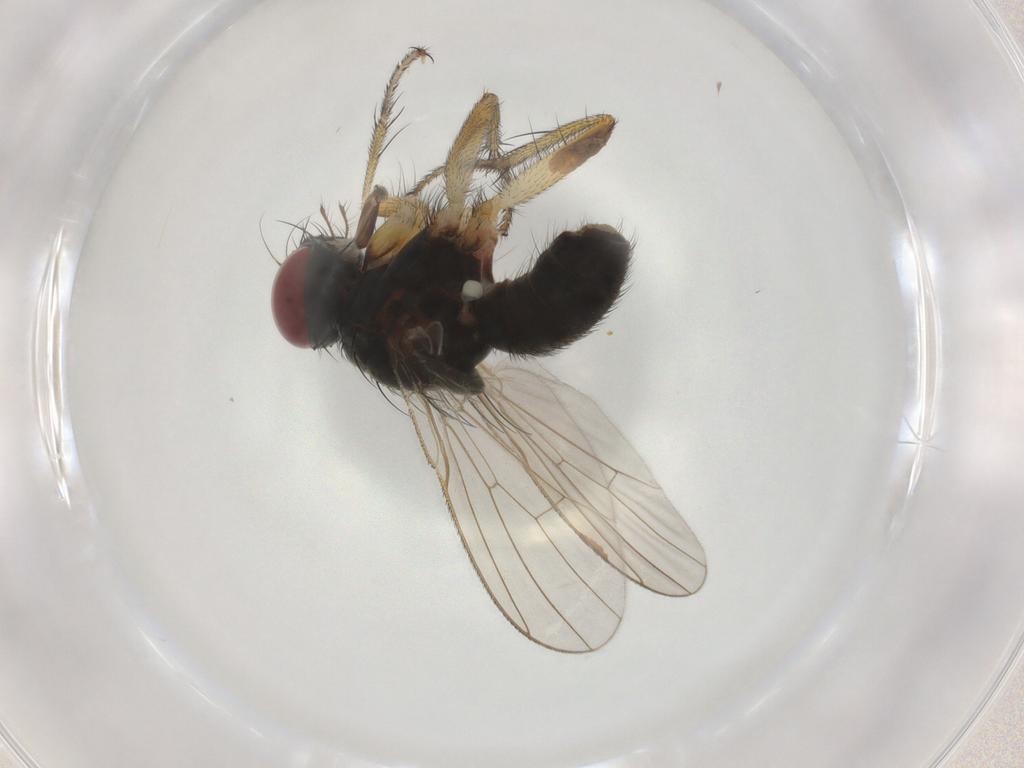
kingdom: Animalia
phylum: Arthropoda
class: Insecta
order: Diptera
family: Muscidae
